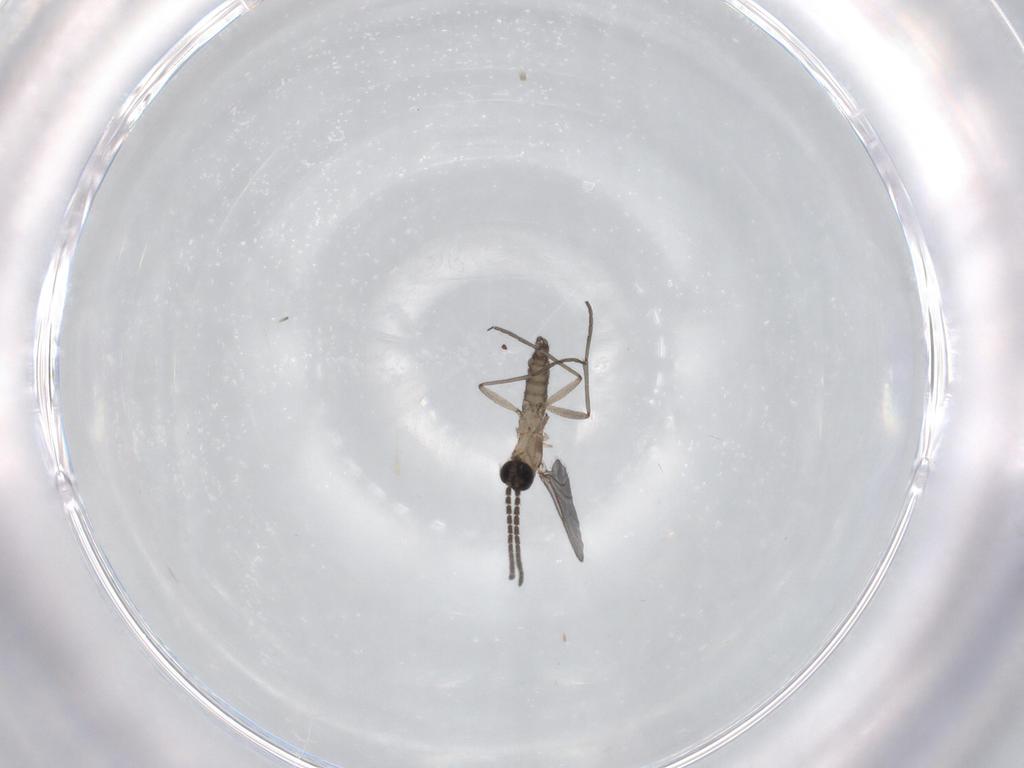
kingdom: Animalia
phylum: Arthropoda
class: Insecta
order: Diptera
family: Sciaridae
